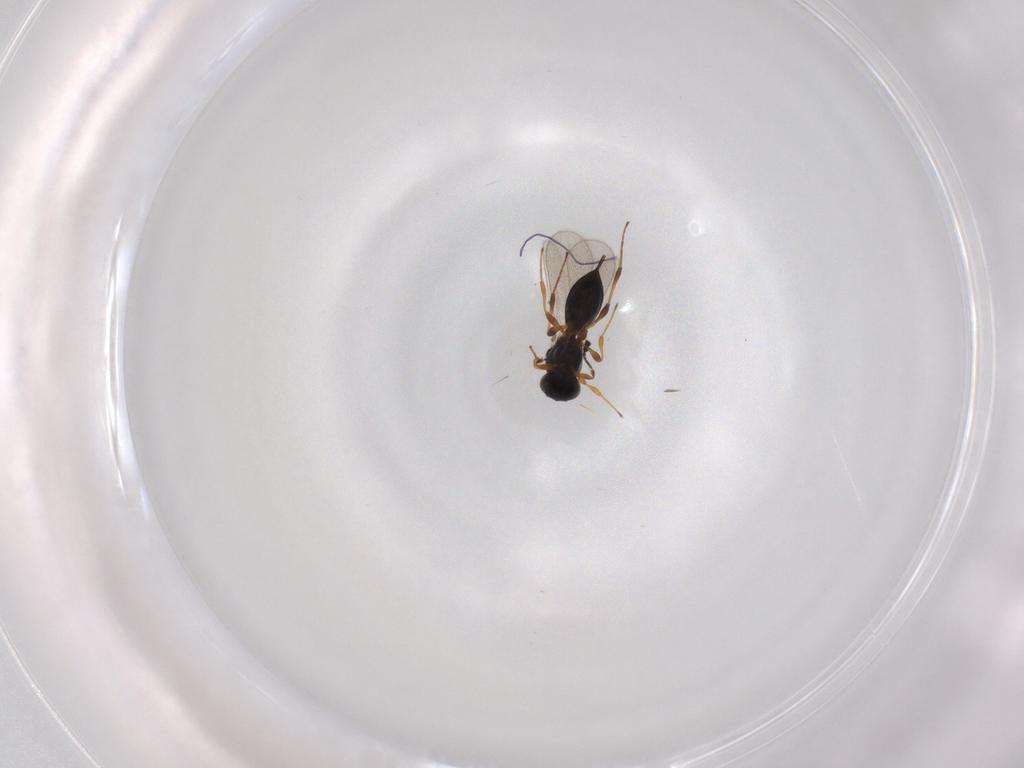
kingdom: Animalia
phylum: Arthropoda
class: Insecta
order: Hymenoptera
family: Platygastridae
